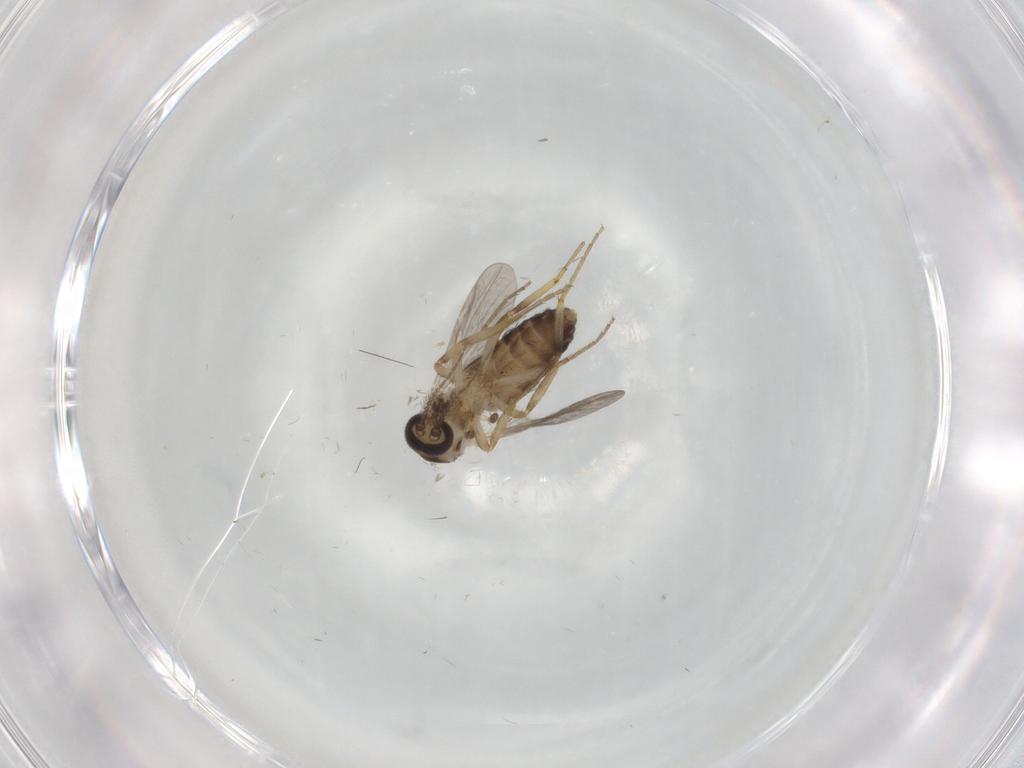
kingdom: Animalia
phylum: Arthropoda
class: Insecta
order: Diptera
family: Ceratopogonidae
